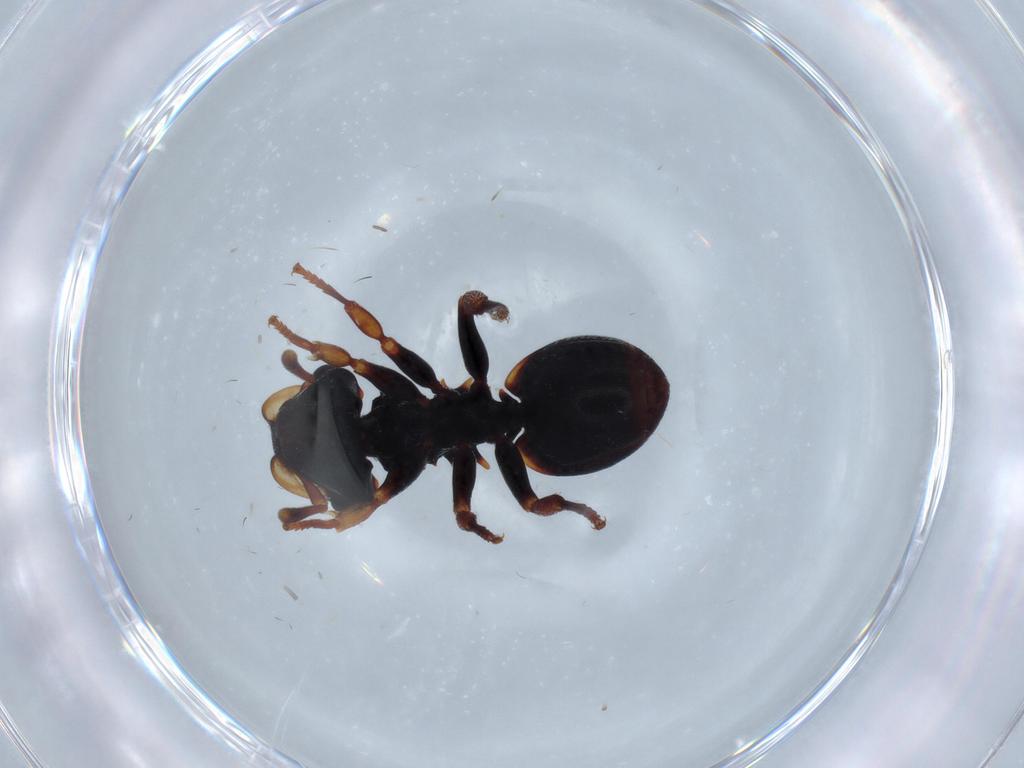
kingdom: Animalia
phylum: Arthropoda
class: Insecta
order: Hymenoptera
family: Formicidae
